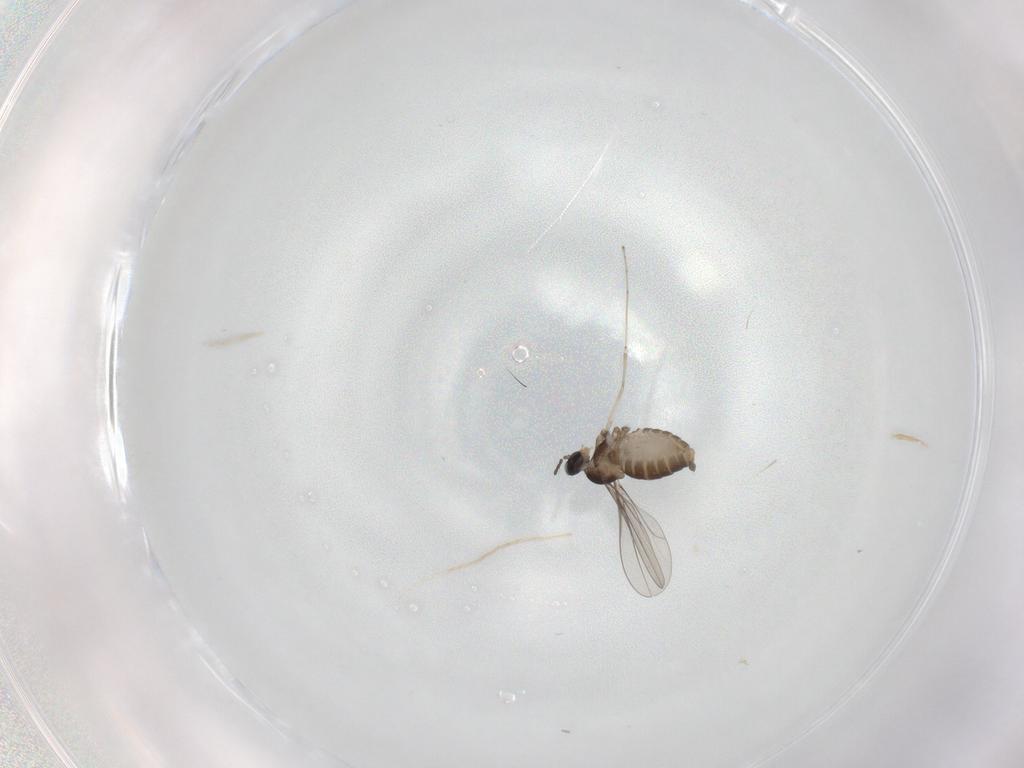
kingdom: Animalia
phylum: Arthropoda
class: Insecta
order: Diptera
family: Cecidomyiidae
